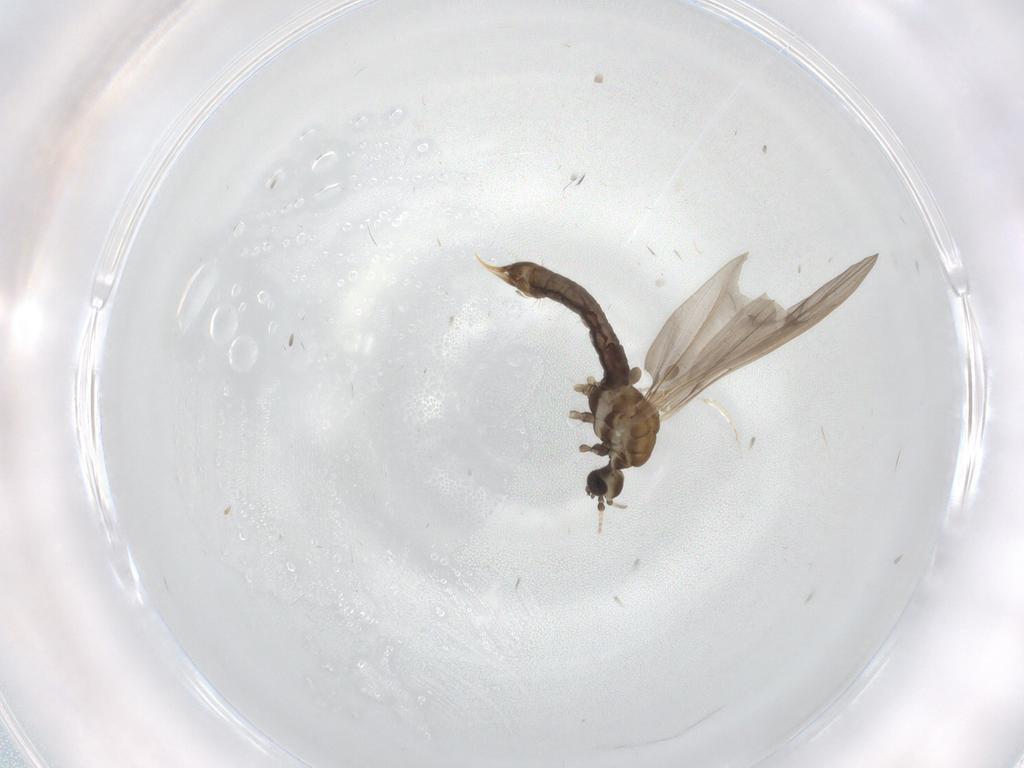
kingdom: Animalia
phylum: Arthropoda
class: Insecta
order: Diptera
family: Limoniidae
